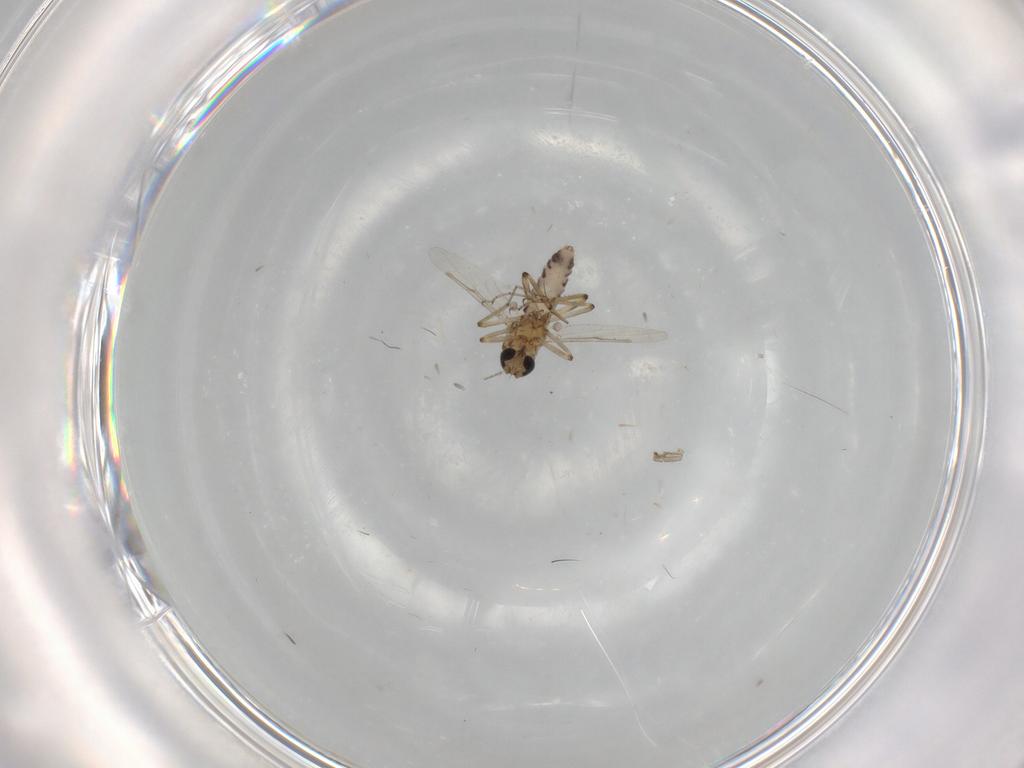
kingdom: Animalia
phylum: Arthropoda
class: Insecta
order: Diptera
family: Ceratopogonidae
